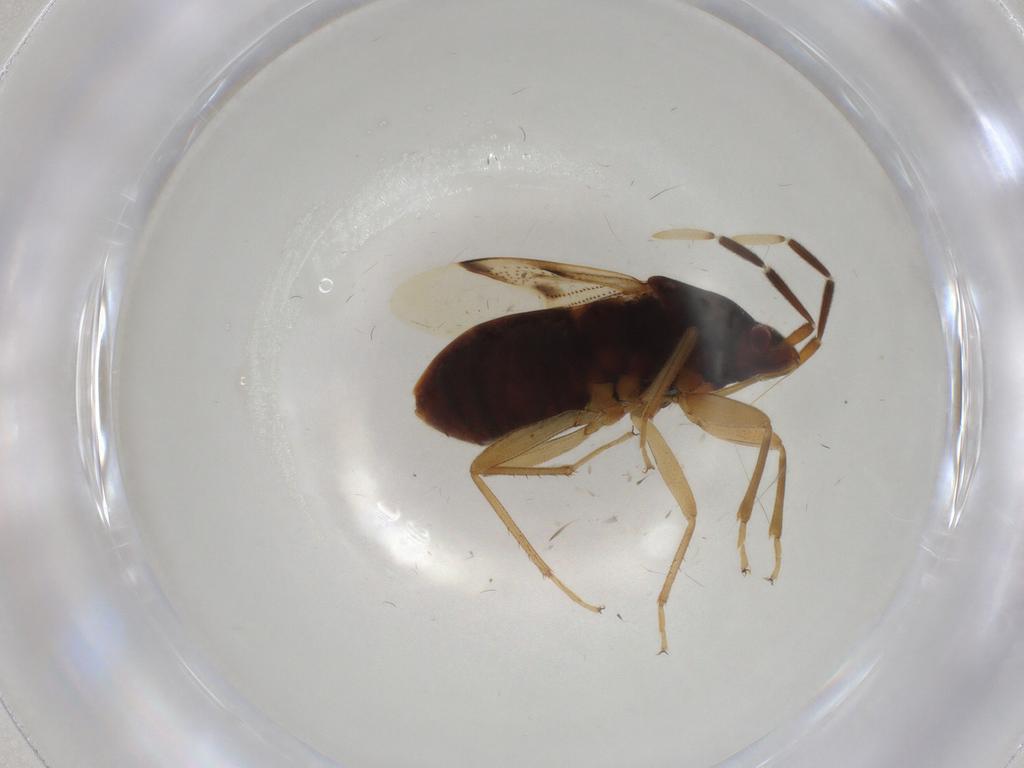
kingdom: Animalia
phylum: Arthropoda
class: Insecta
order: Hemiptera
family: Rhyparochromidae
